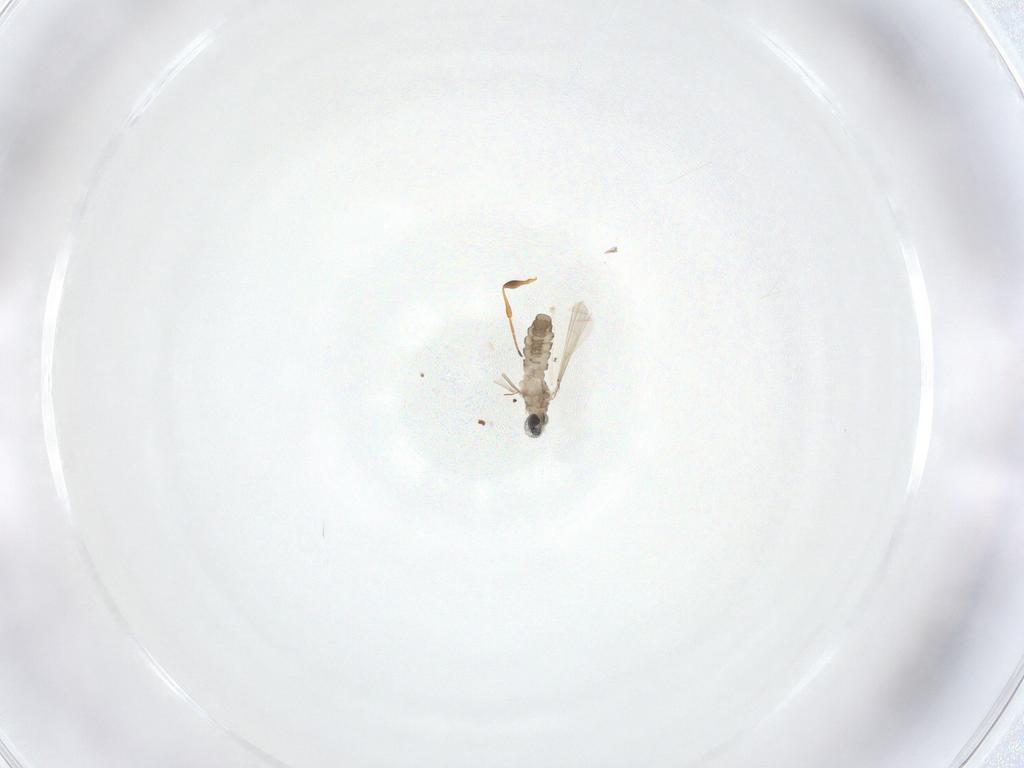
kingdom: Animalia
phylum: Arthropoda
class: Insecta
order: Diptera
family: Cecidomyiidae
